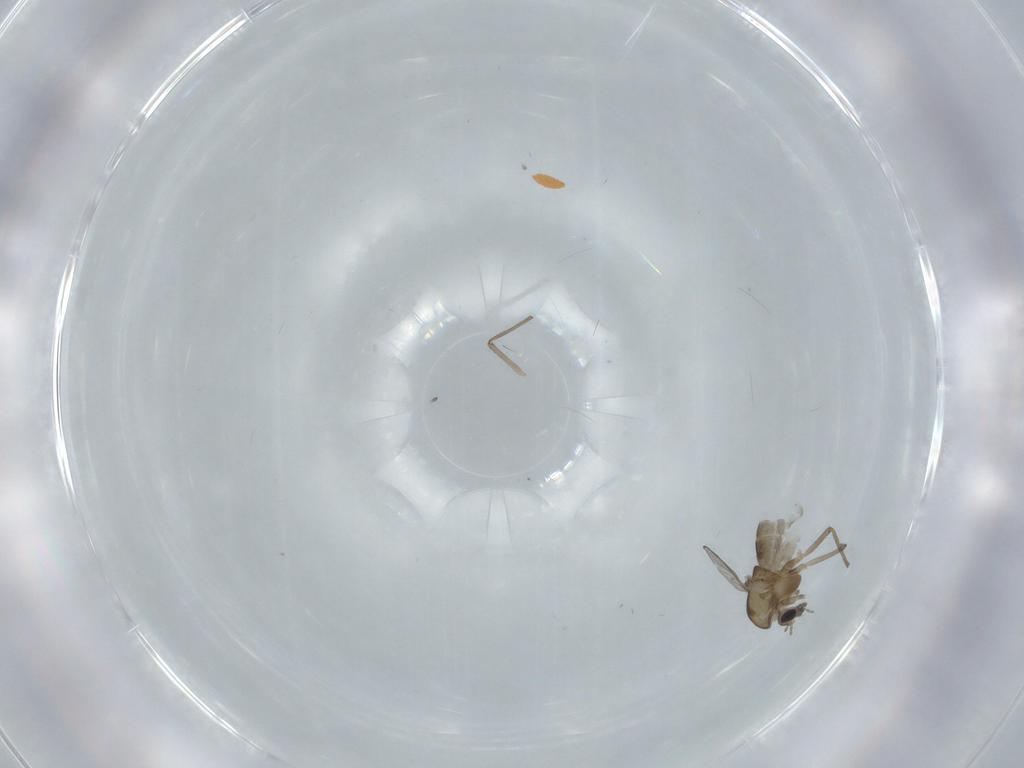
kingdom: Animalia
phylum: Arthropoda
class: Insecta
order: Diptera
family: Chironomidae
